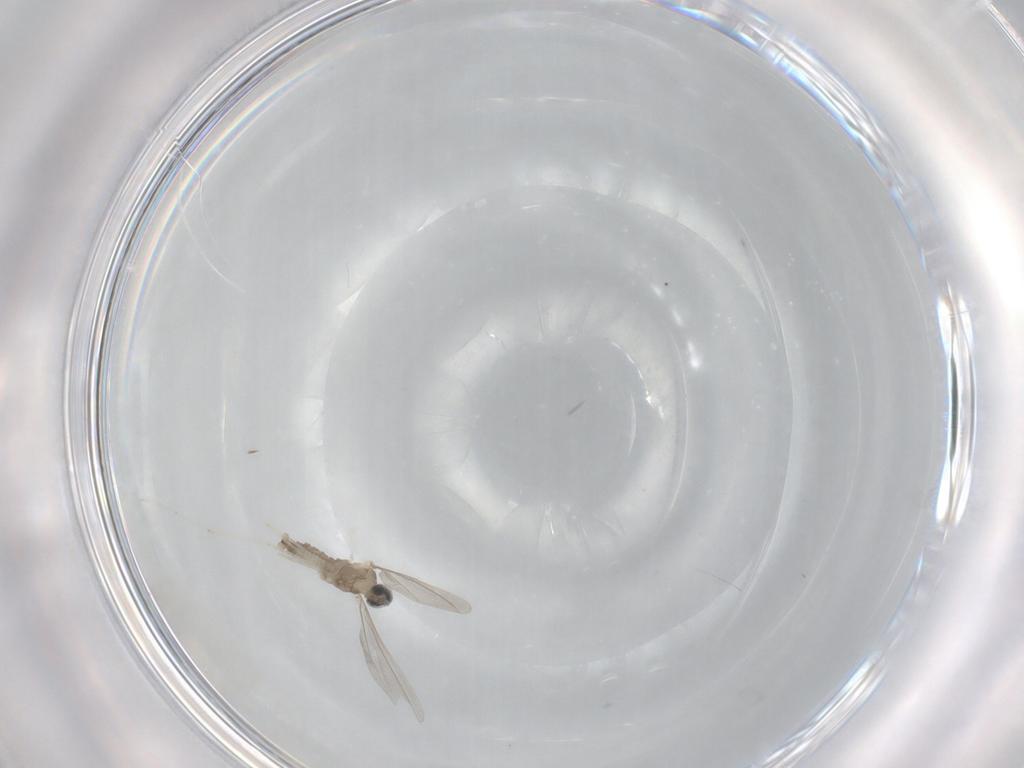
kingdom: Animalia
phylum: Arthropoda
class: Insecta
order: Diptera
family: Cecidomyiidae
